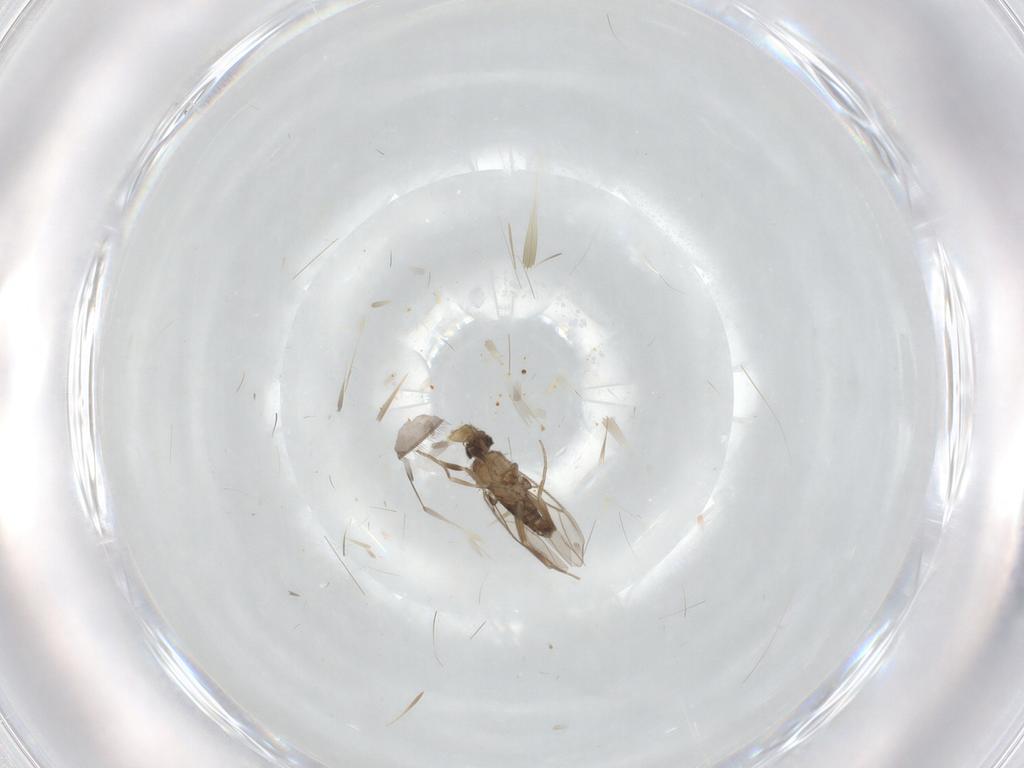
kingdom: Animalia
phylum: Arthropoda
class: Insecta
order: Diptera
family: Phoridae
